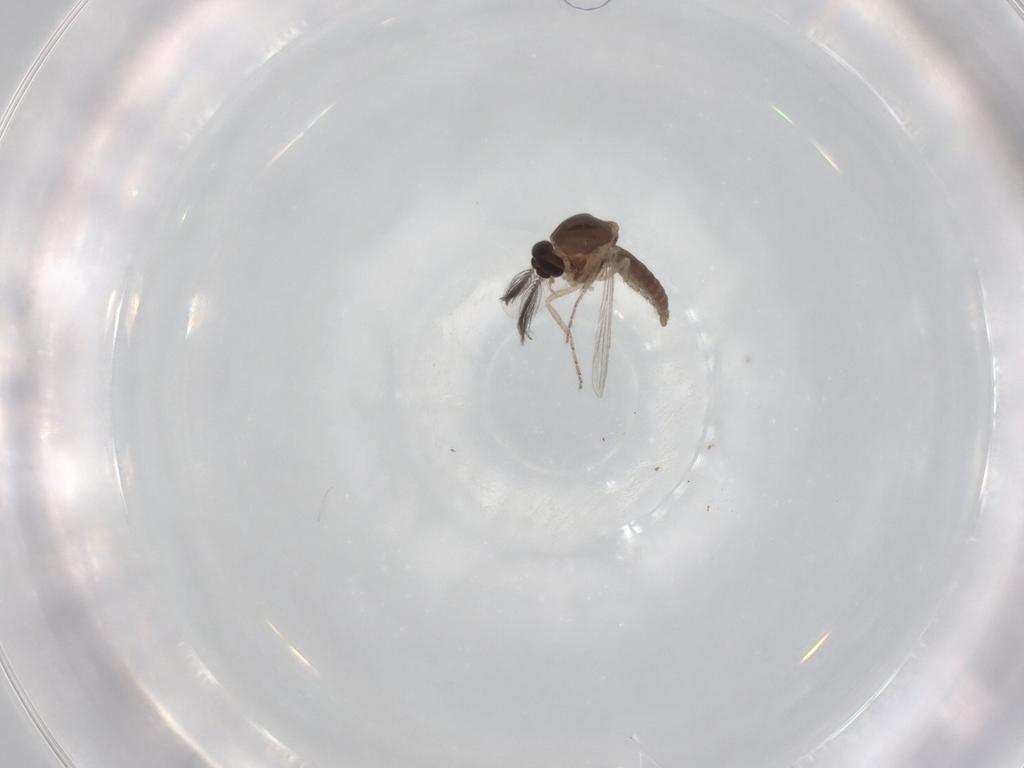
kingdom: Animalia
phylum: Arthropoda
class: Insecta
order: Diptera
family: Ceratopogonidae
